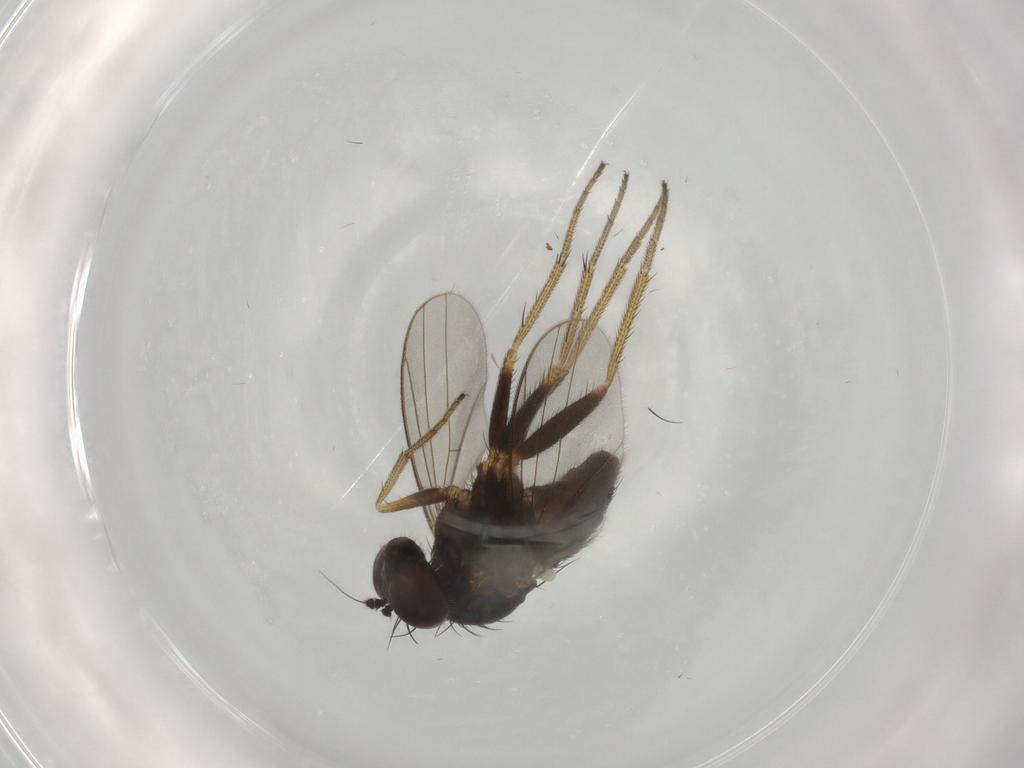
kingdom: Animalia
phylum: Arthropoda
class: Insecta
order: Diptera
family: Dolichopodidae
